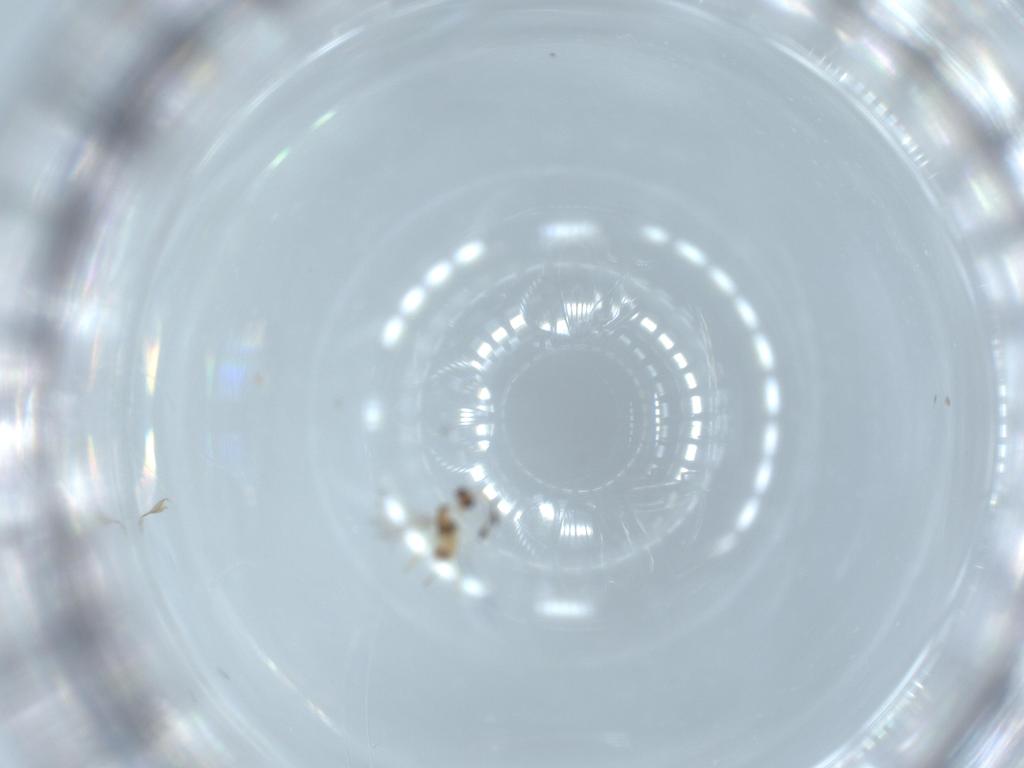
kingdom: Animalia
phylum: Arthropoda
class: Insecta
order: Hymenoptera
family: Mymaridae
